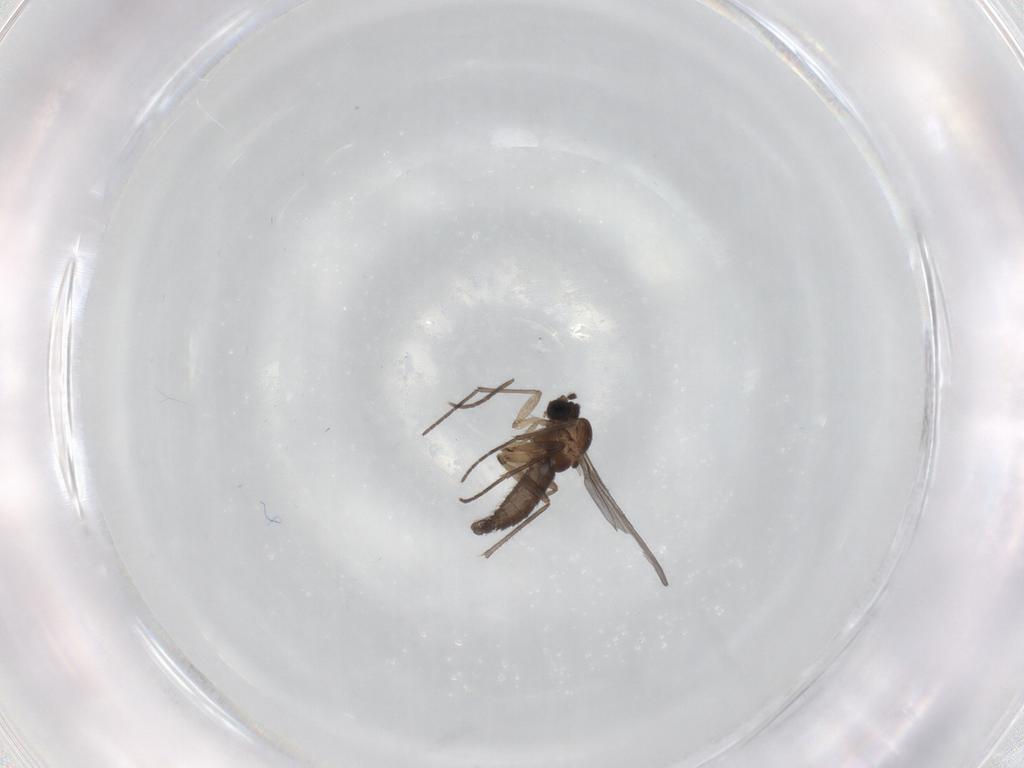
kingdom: Animalia
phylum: Arthropoda
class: Insecta
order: Diptera
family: Sciaridae
